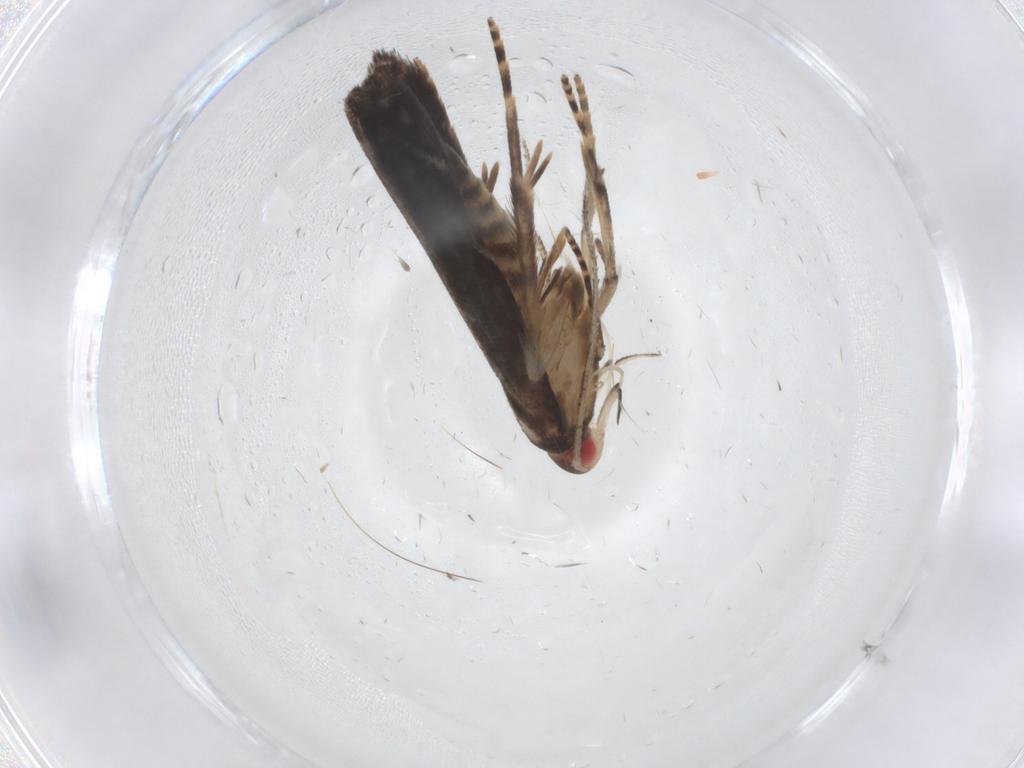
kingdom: Animalia
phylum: Arthropoda
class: Insecta
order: Lepidoptera
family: Gelechiidae
